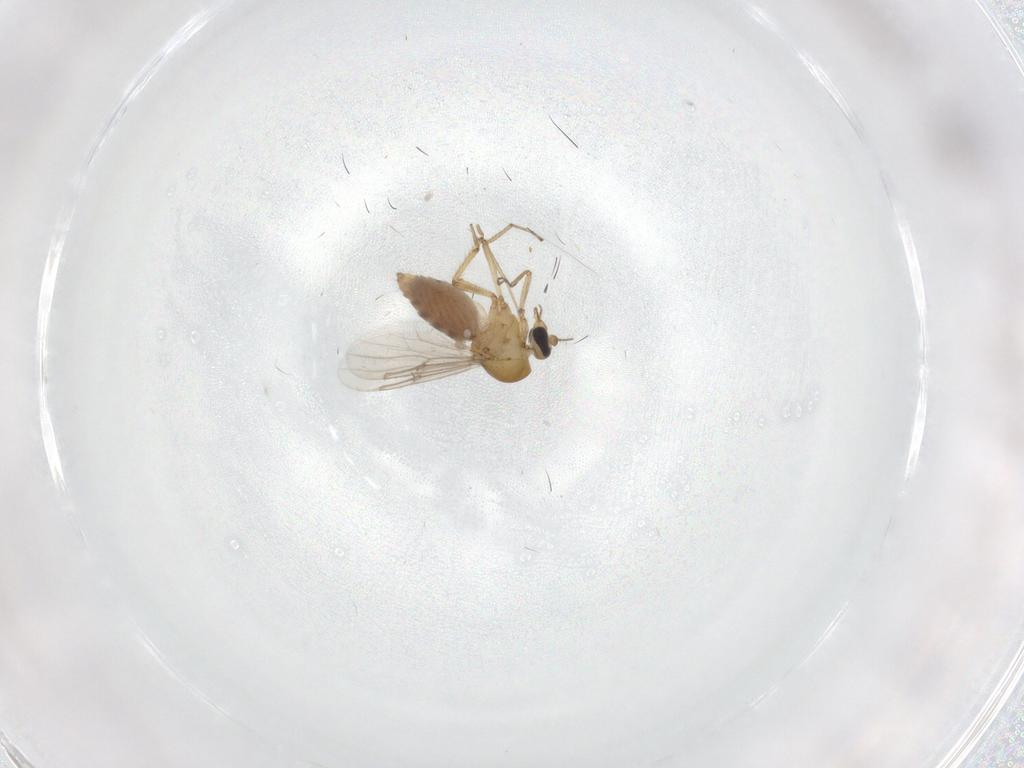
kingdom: Animalia
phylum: Arthropoda
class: Insecta
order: Diptera
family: Ceratopogonidae
